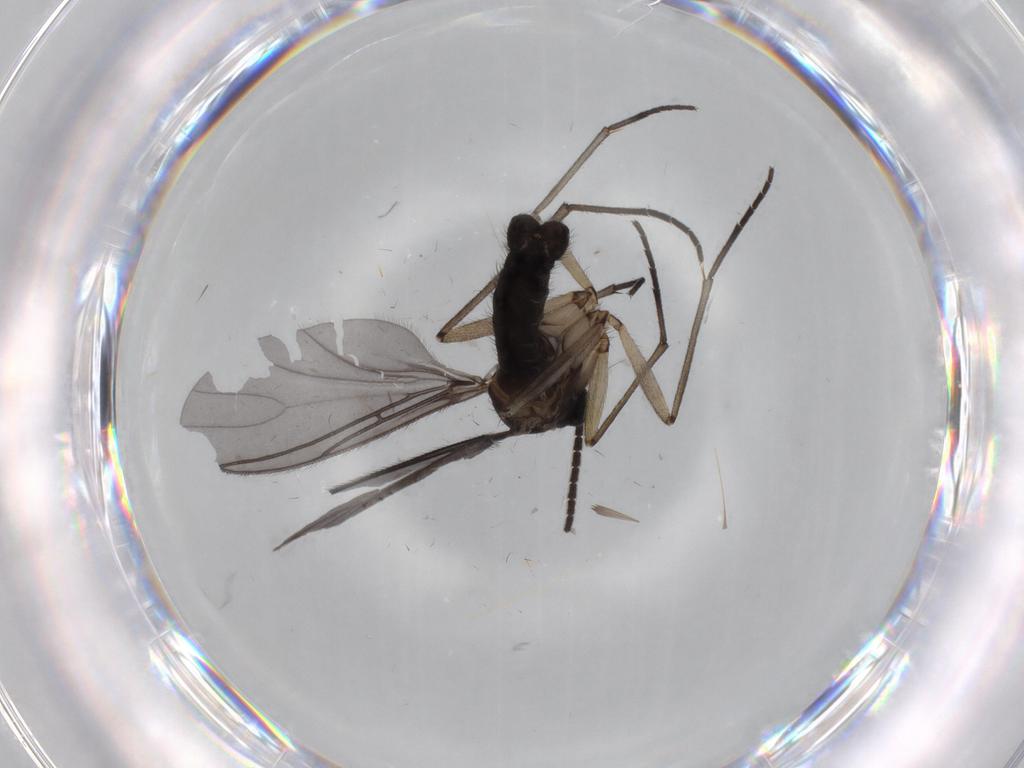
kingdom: Animalia
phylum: Arthropoda
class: Insecta
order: Diptera
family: Sciaridae
